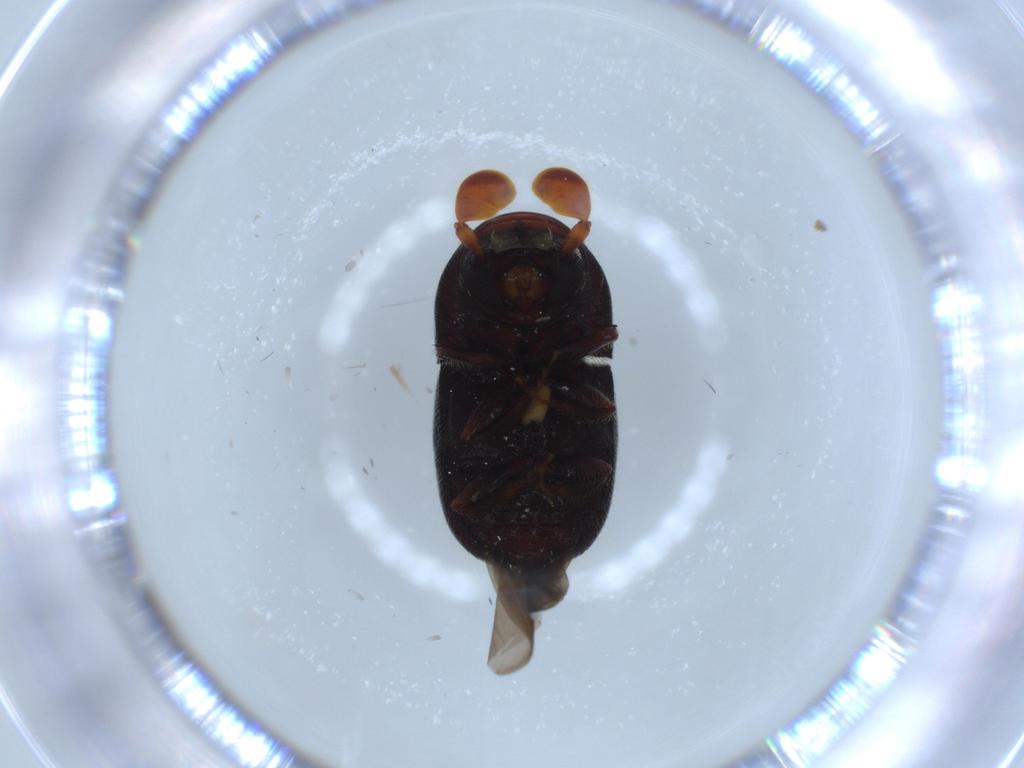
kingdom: Animalia
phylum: Arthropoda
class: Insecta
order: Coleoptera
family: Curculionidae
